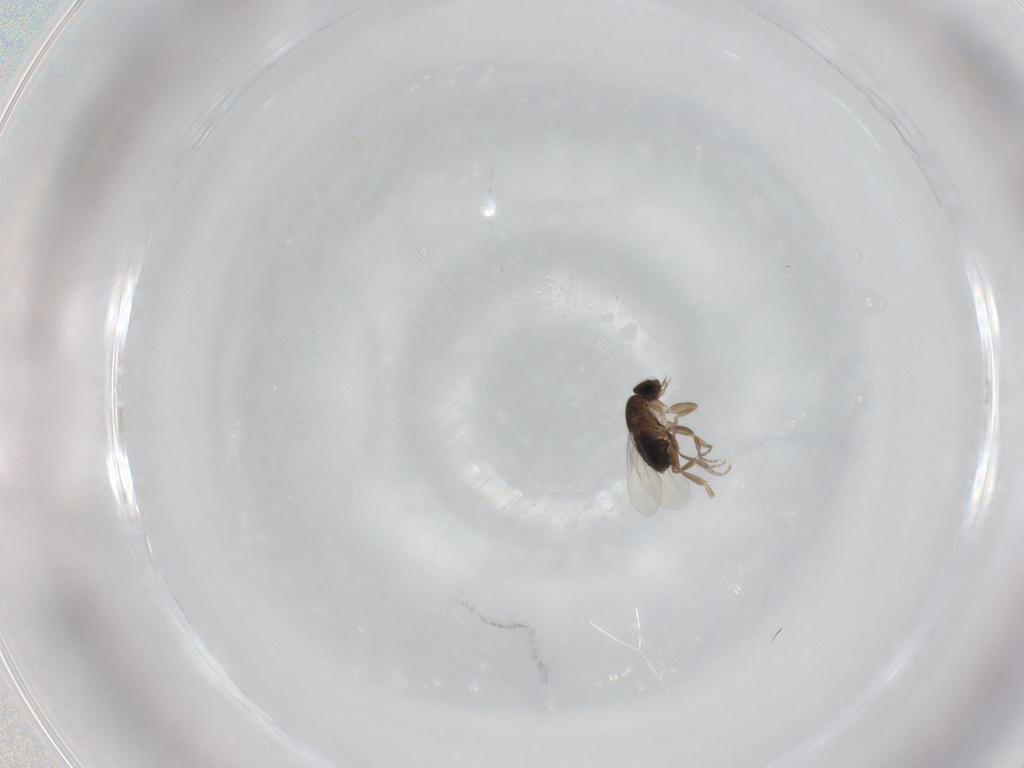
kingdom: Animalia
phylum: Arthropoda
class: Insecta
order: Diptera
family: Phoridae
